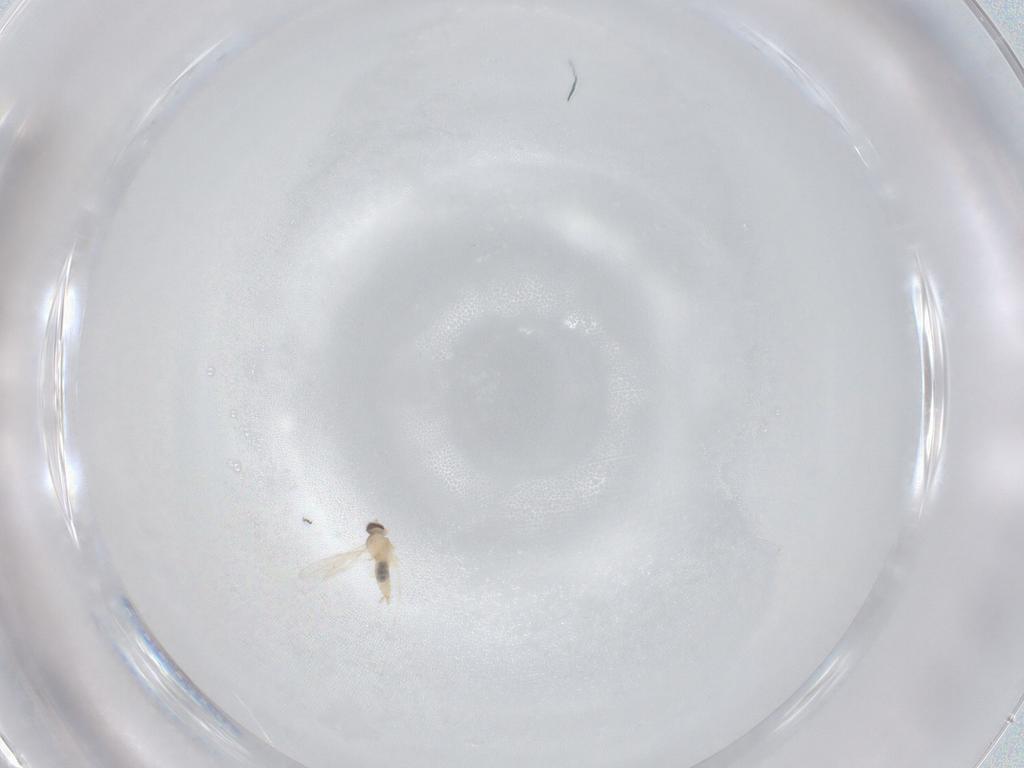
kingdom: Animalia
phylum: Arthropoda
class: Insecta
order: Diptera
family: Cecidomyiidae
